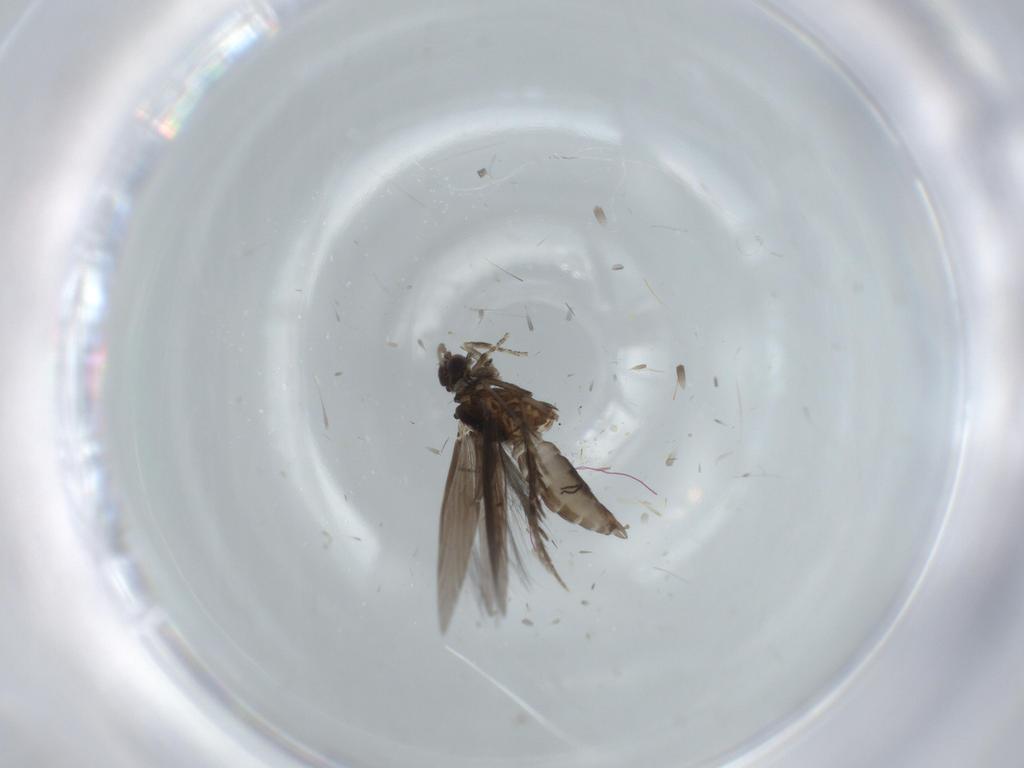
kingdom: Animalia
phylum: Arthropoda
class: Insecta
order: Trichoptera
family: Hydroptilidae
